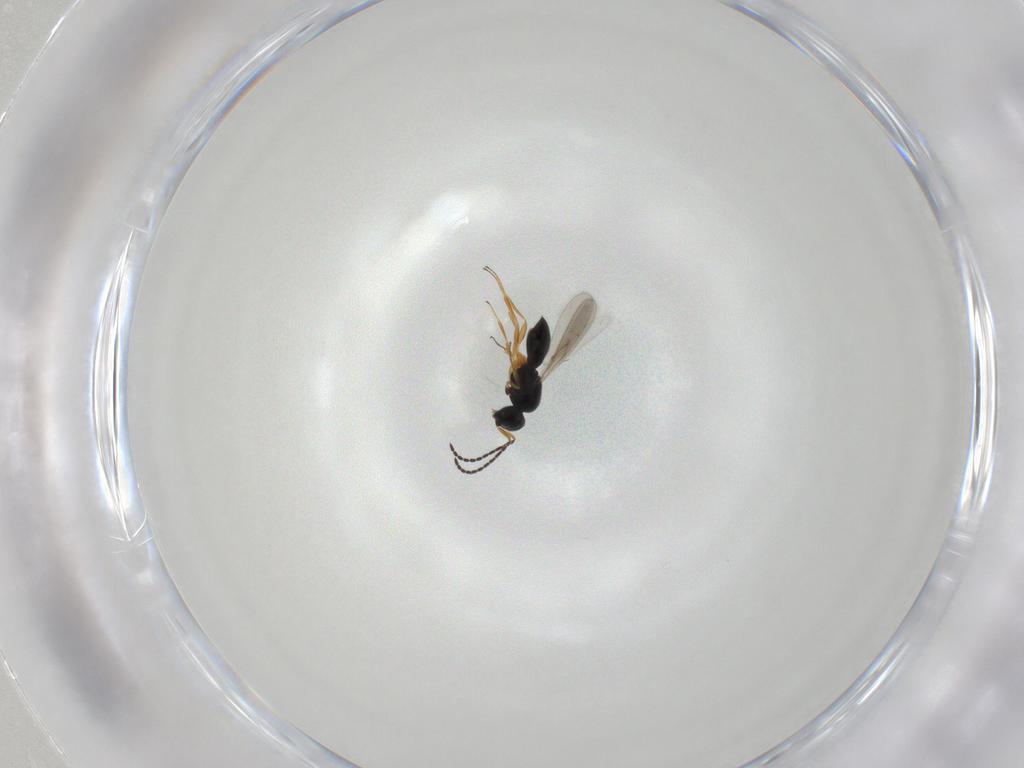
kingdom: Animalia
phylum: Arthropoda
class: Insecta
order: Hymenoptera
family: Scelionidae
